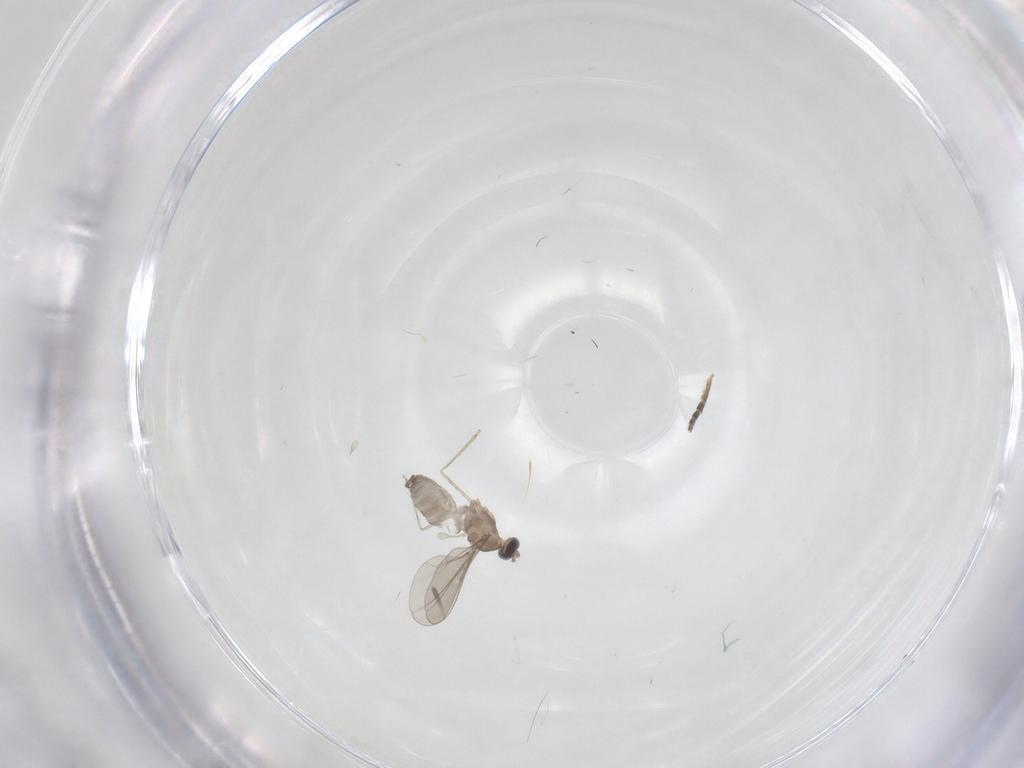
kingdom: Animalia
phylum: Arthropoda
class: Insecta
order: Diptera
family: Cecidomyiidae
